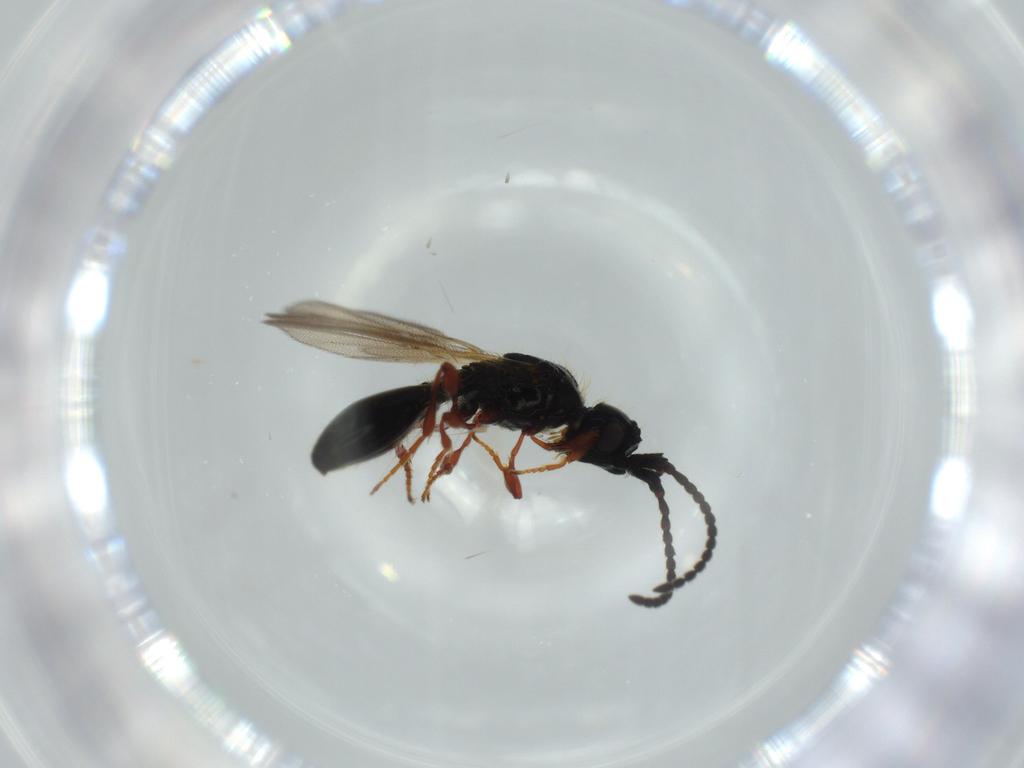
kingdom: Animalia
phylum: Arthropoda
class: Insecta
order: Hymenoptera
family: Diapriidae
